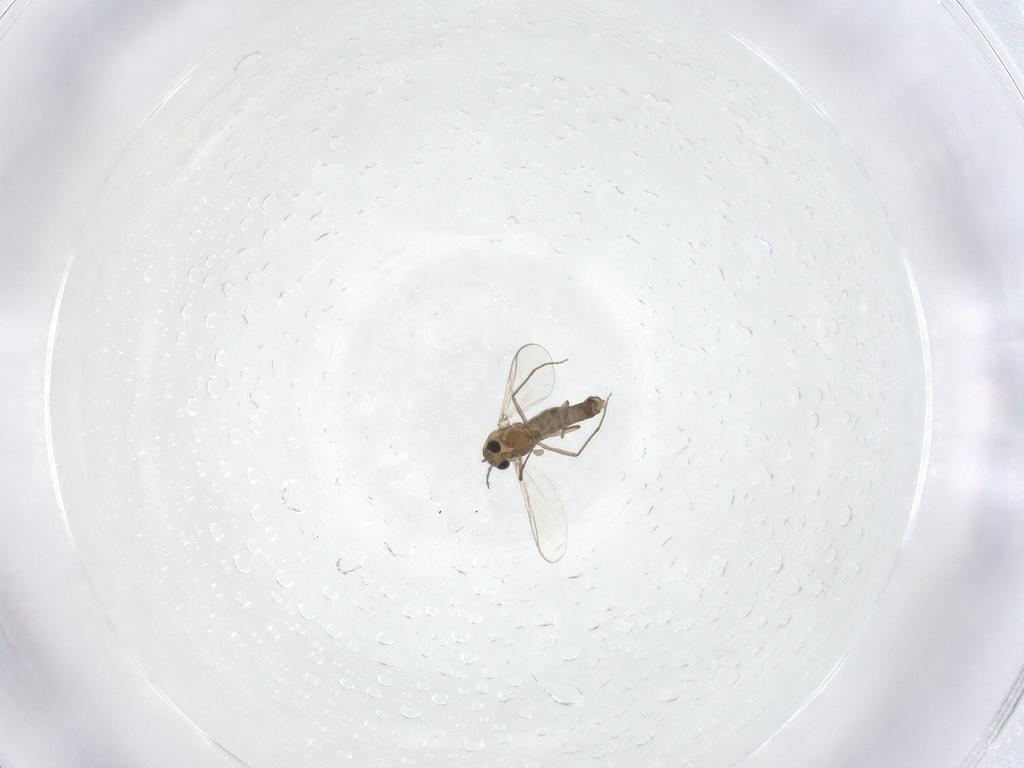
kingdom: Animalia
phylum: Arthropoda
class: Insecta
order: Diptera
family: Chironomidae
